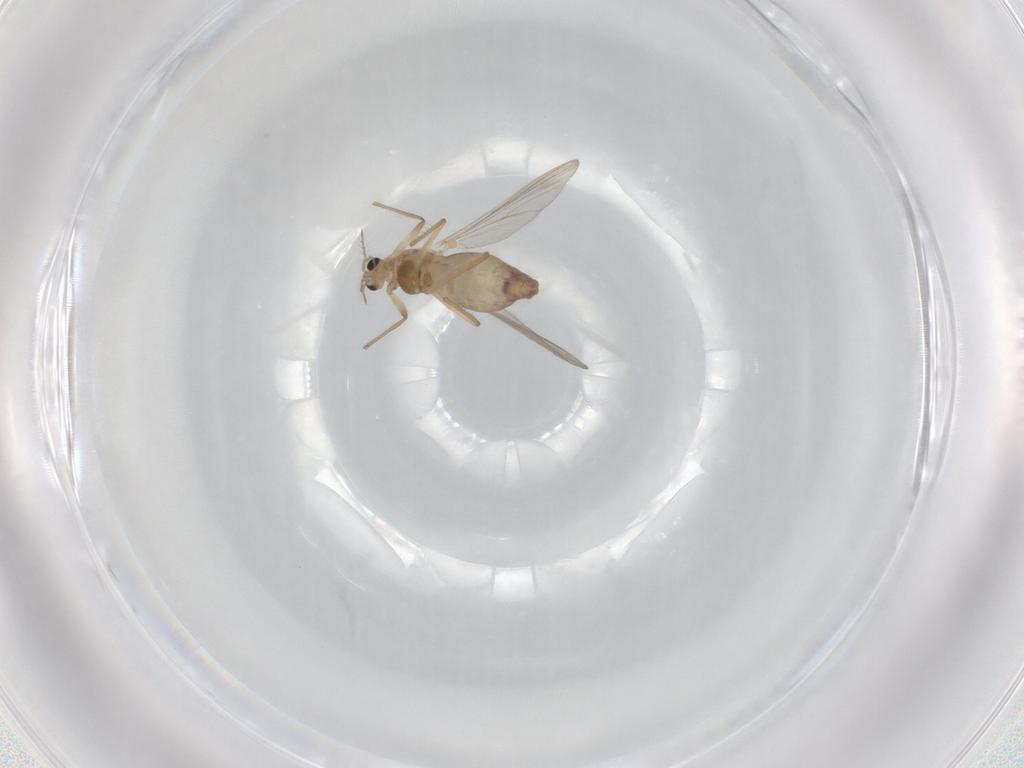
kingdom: Animalia
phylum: Arthropoda
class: Insecta
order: Diptera
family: Chironomidae
